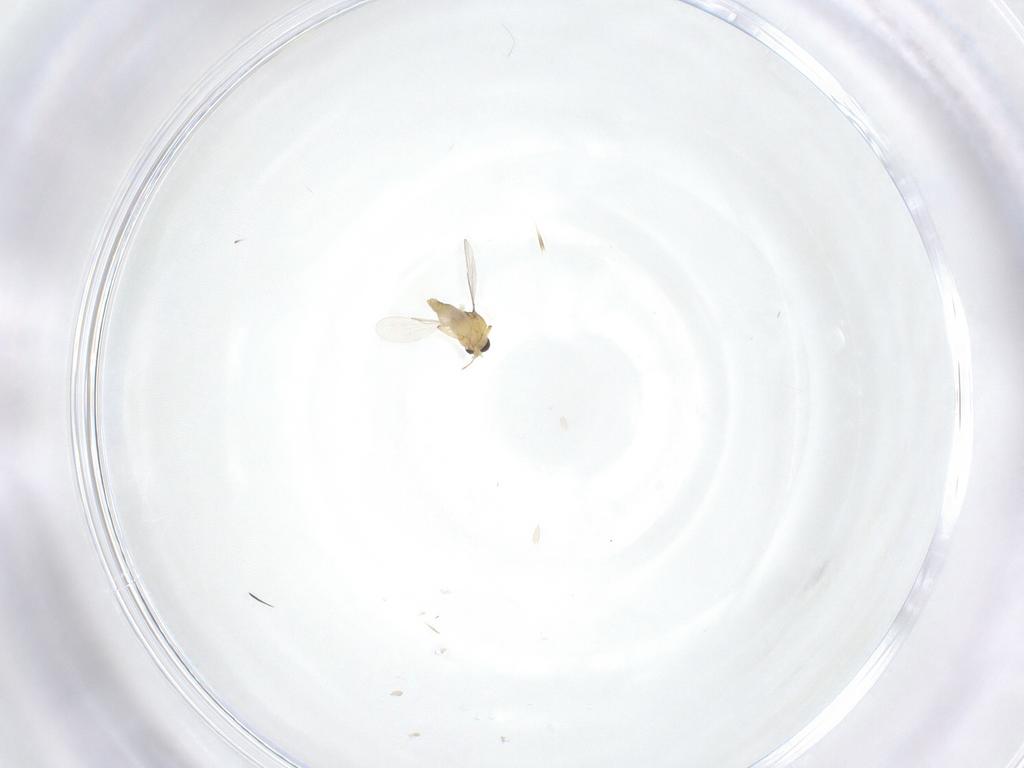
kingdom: Animalia
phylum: Arthropoda
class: Insecta
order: Diptera
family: Ceratopogonidae
